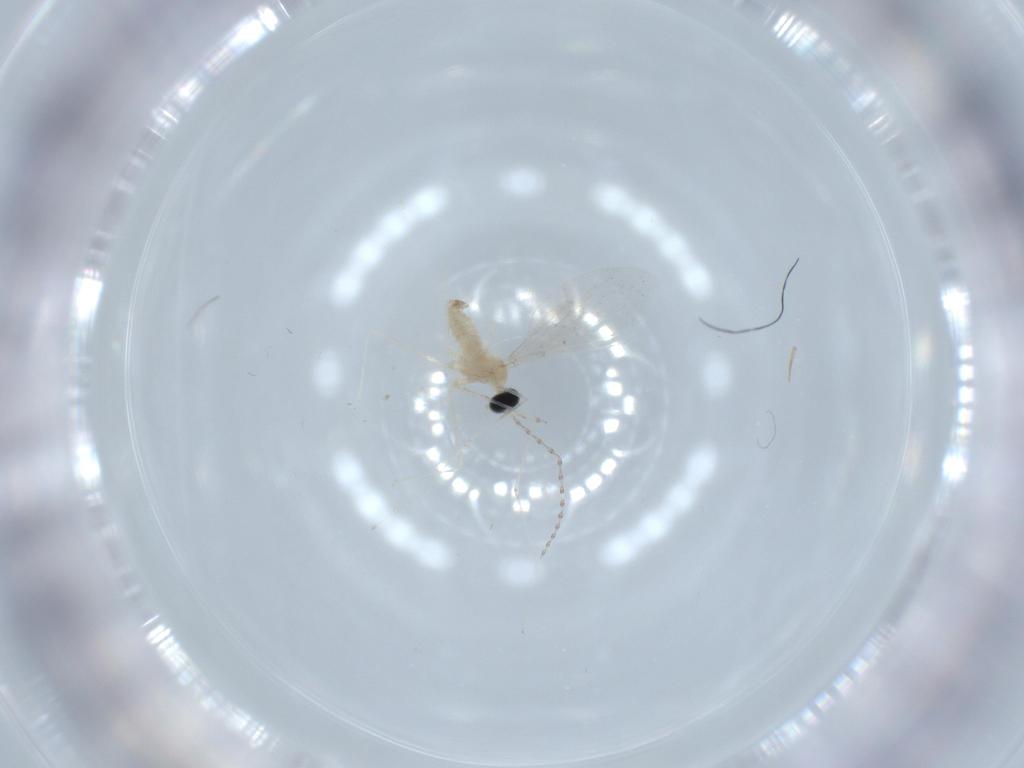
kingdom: Animalia
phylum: Arthropoda
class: Insecta
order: Diptera
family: Cecidomyiidae
